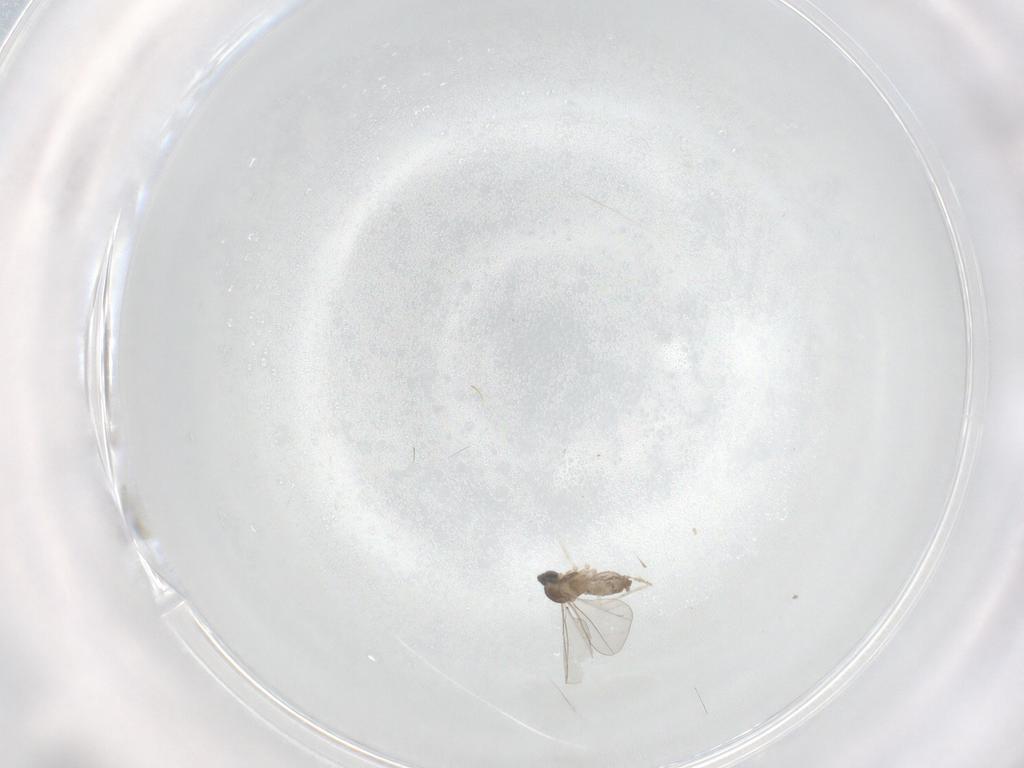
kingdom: Animalia
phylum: Arthropoda
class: Insecta
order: Diptera
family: Cecidomyiidae
